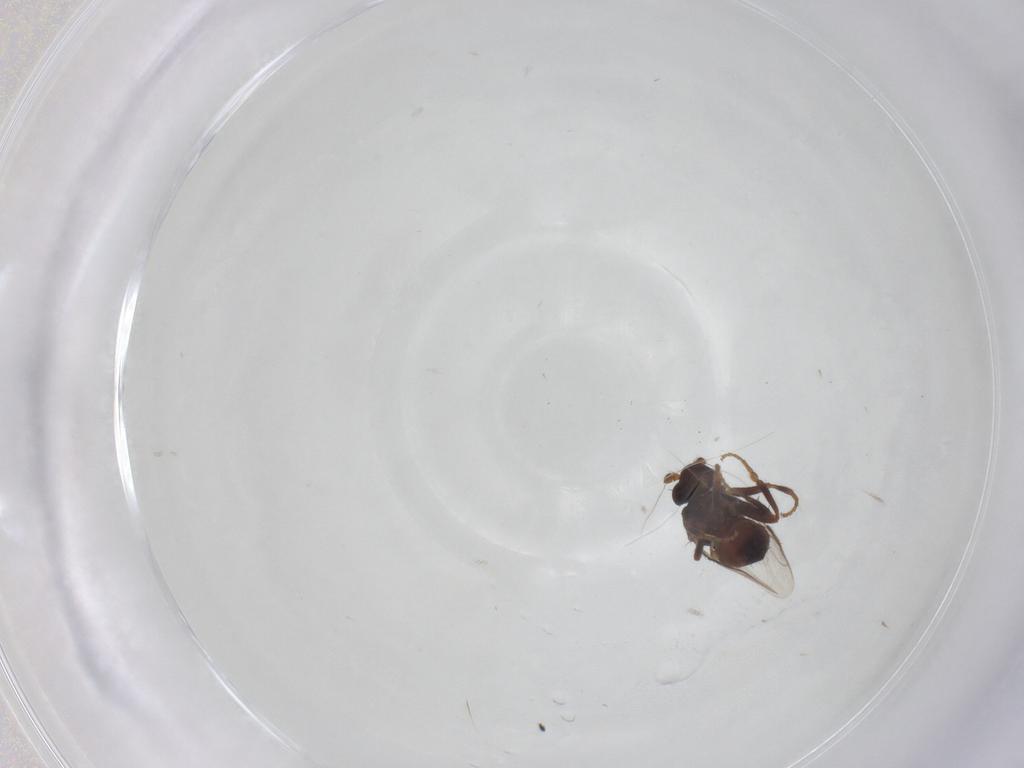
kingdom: Animalia
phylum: Arthropoda
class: Insecta
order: Diptera
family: Sphaeroceridae
